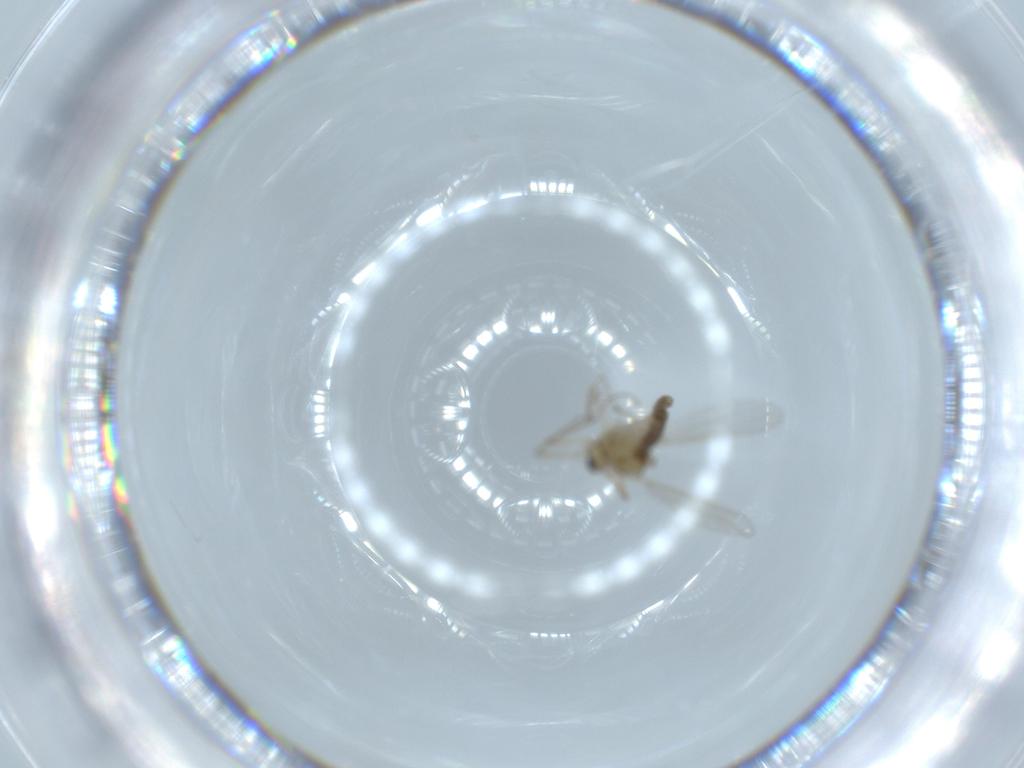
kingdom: Animalia
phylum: Arthropoda
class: Insecta
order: Diptera
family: Chironomidae
